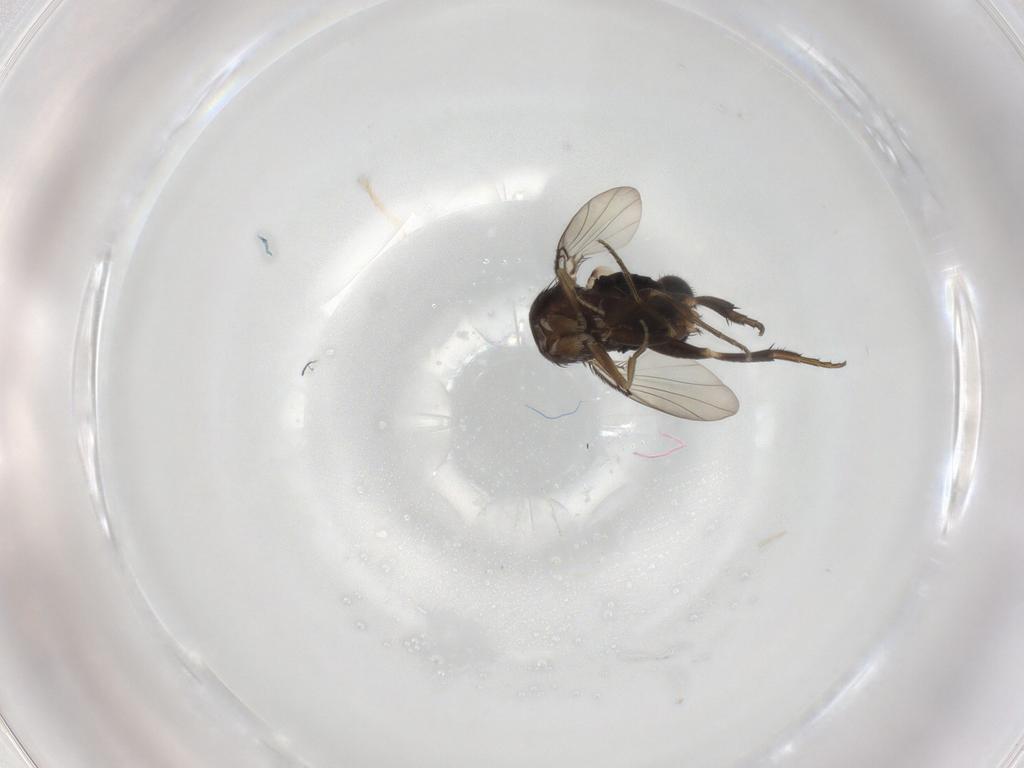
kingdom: Animalia
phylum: Arthropoda
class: Insecta
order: Diptera
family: Phoridae
